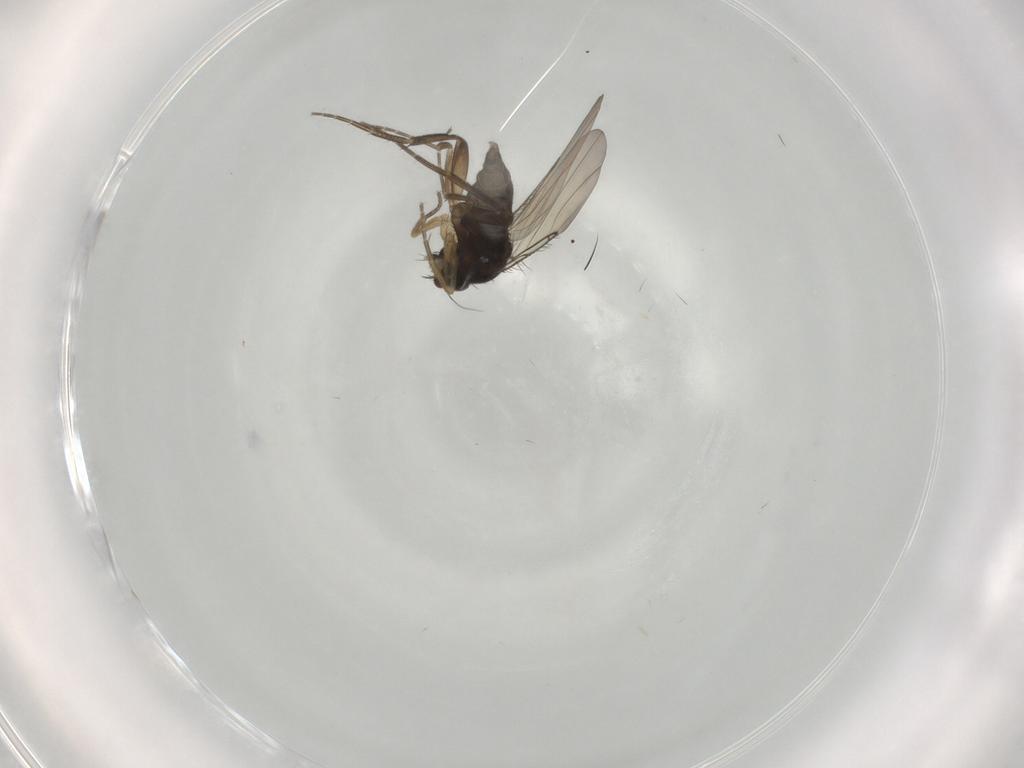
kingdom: Animalia
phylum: Arthropoda
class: Insecta
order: Diptera
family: Phoridae
